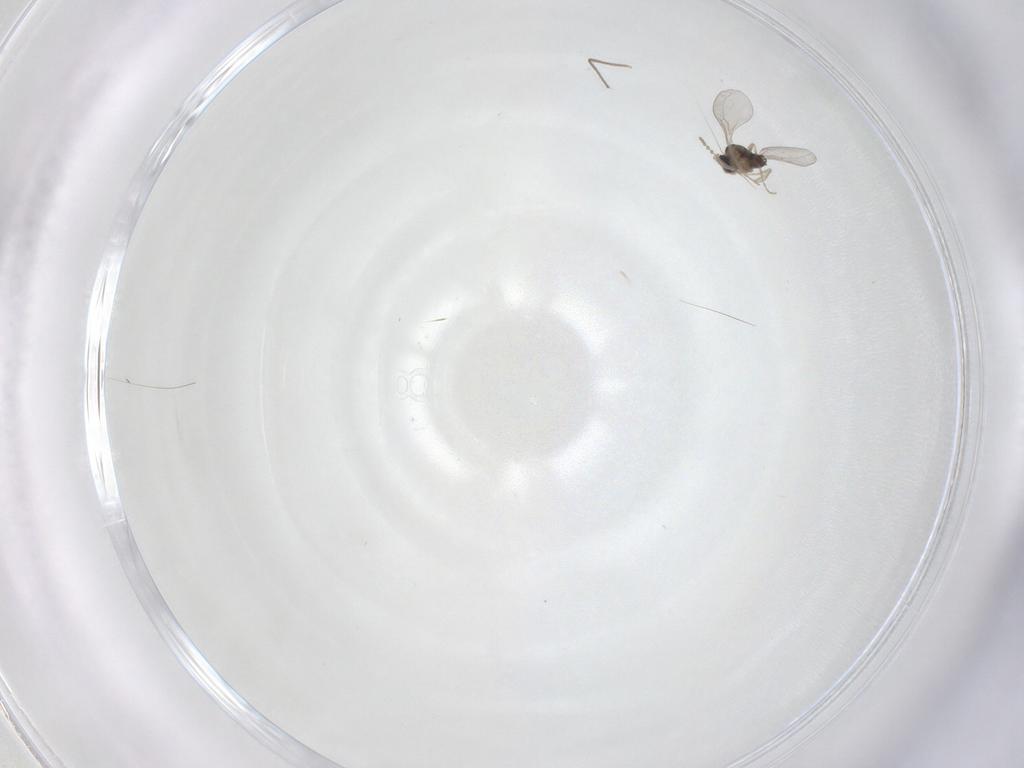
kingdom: Animalia
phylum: Arthropoda
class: Insecta
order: Diptera
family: Cecidomyiidae
